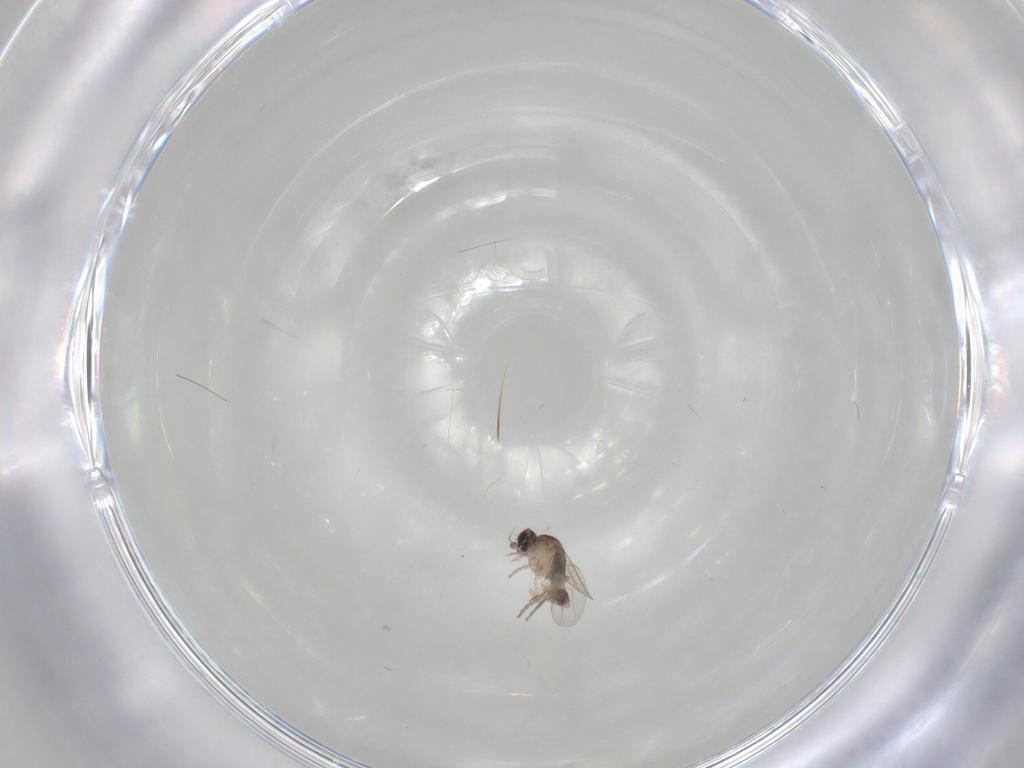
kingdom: Animalia
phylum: Arthropoda
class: Insecta
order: Diptera
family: Phoridae
